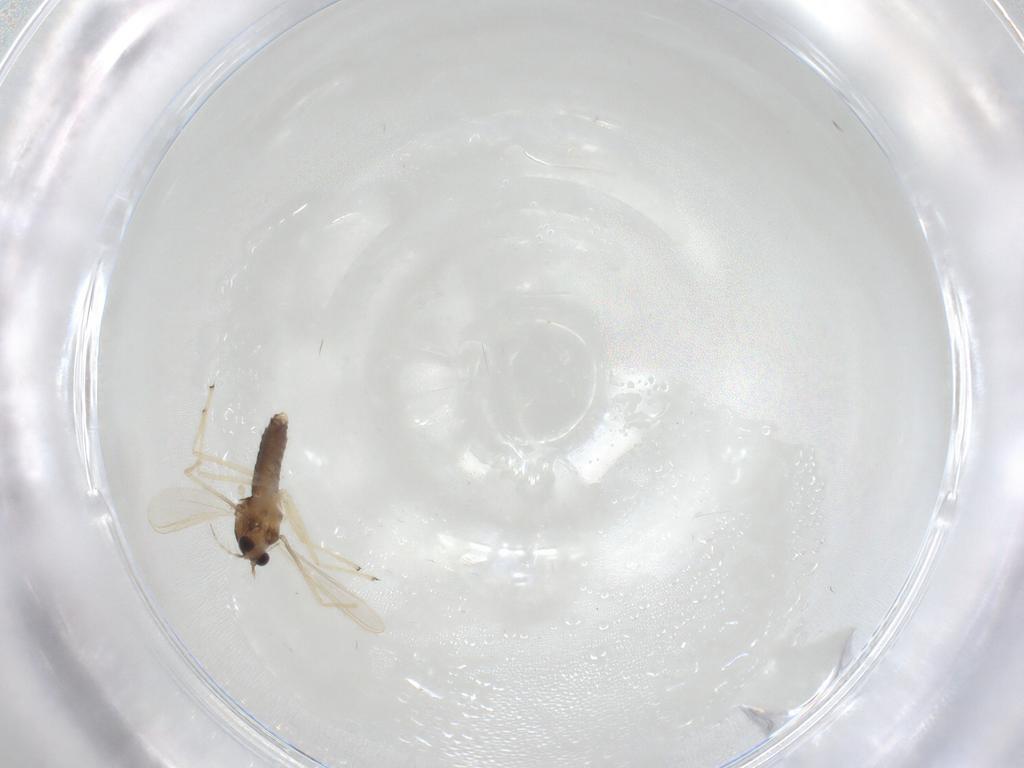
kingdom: Animalia
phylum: Arthropoda
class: Insecta
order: Diptera
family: Chironomidae
